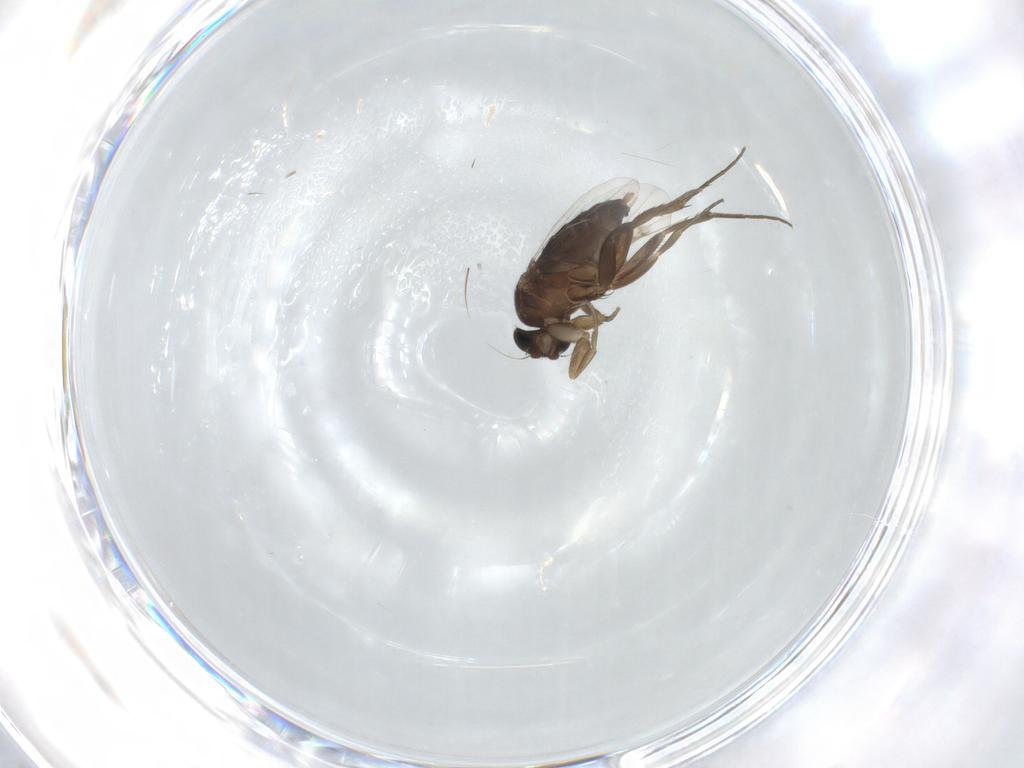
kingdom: Animalia
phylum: Arthropoda
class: Insecta
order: Diptera
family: Phoridae
